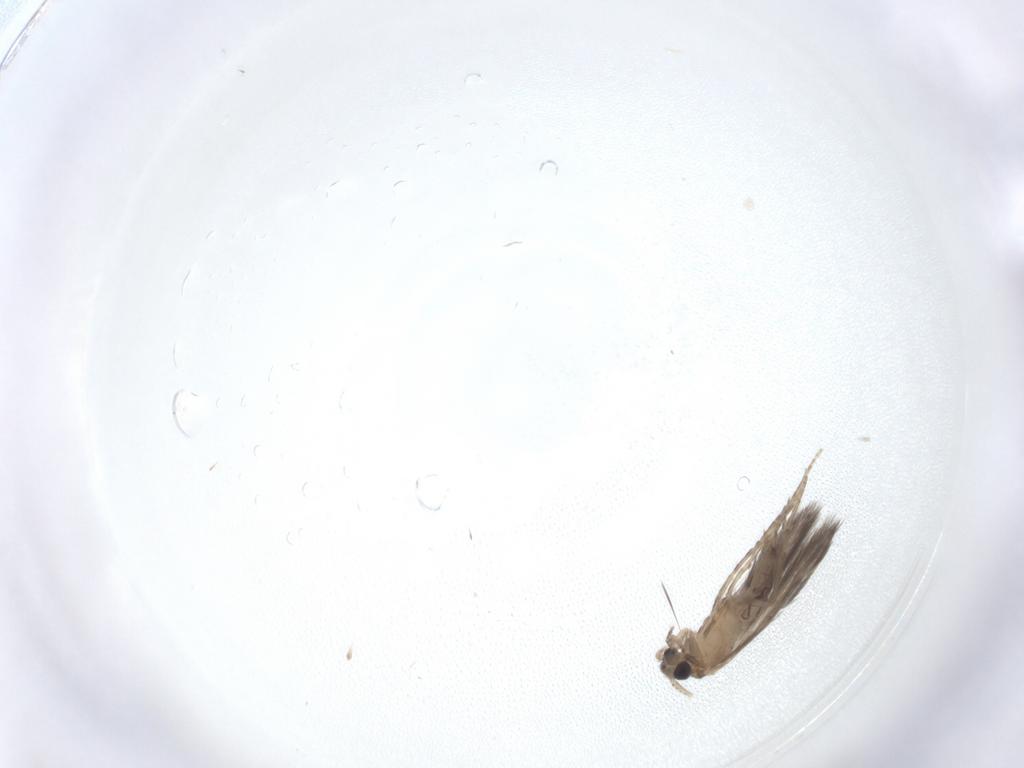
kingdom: Animalia
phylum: Arthropoda
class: Insecta
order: Trichoptera
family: Hydroptilidae
